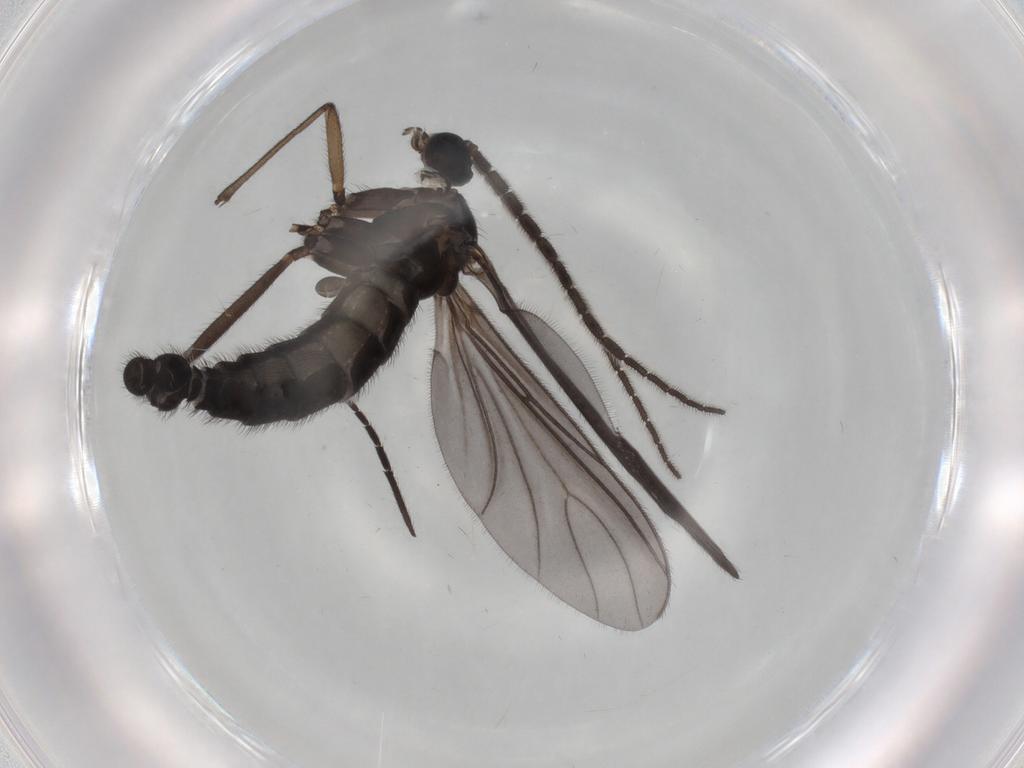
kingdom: Animalia
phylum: Arthropoda
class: Insecta
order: Diptera
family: Sciaridae
